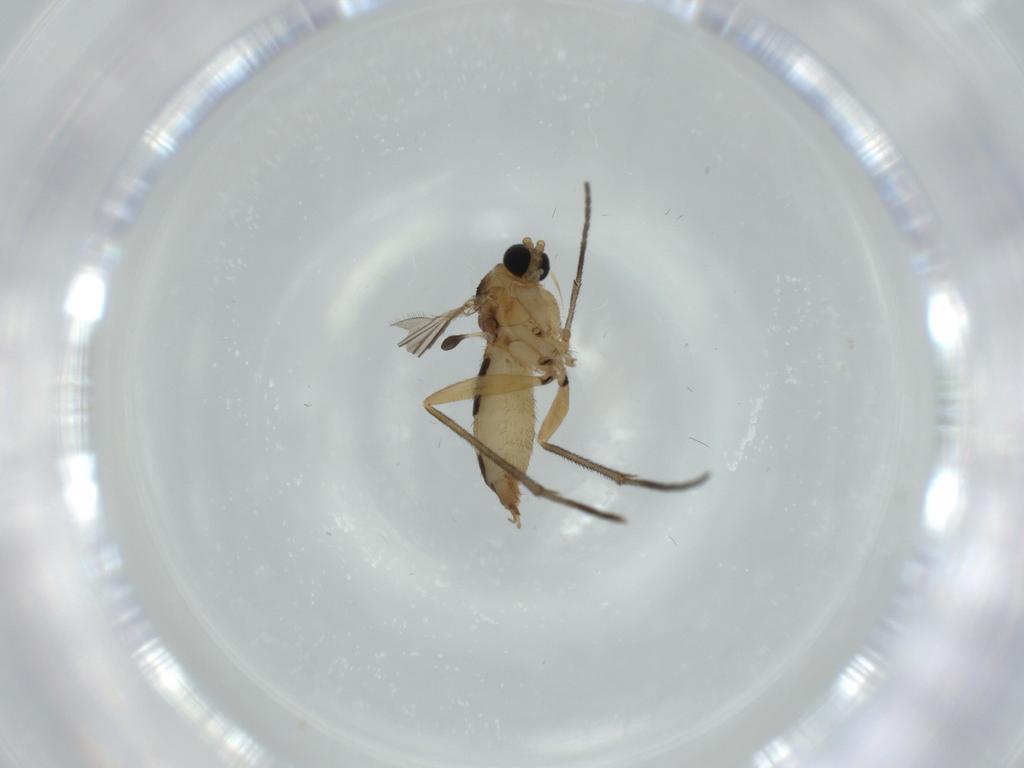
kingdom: Animalia
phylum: Arthropoda
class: Insecta
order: Diptera
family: Sciaridae
